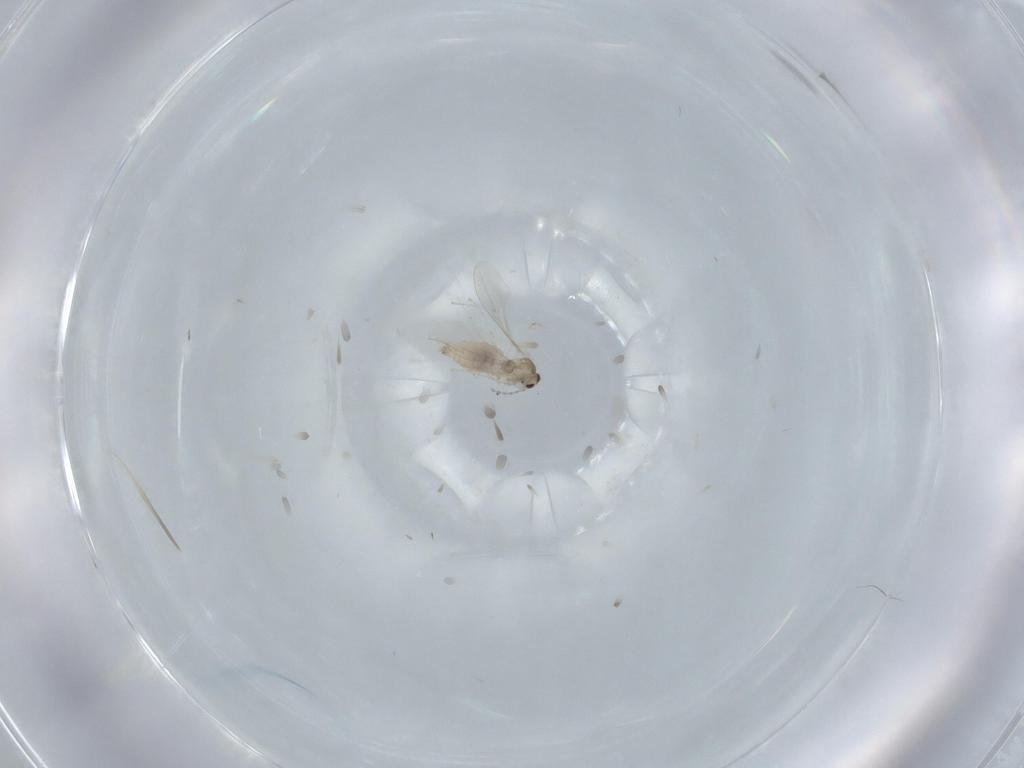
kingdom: Animalia
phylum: Arthropoda
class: Insecta
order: Diptera
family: Cecidomyiidae
